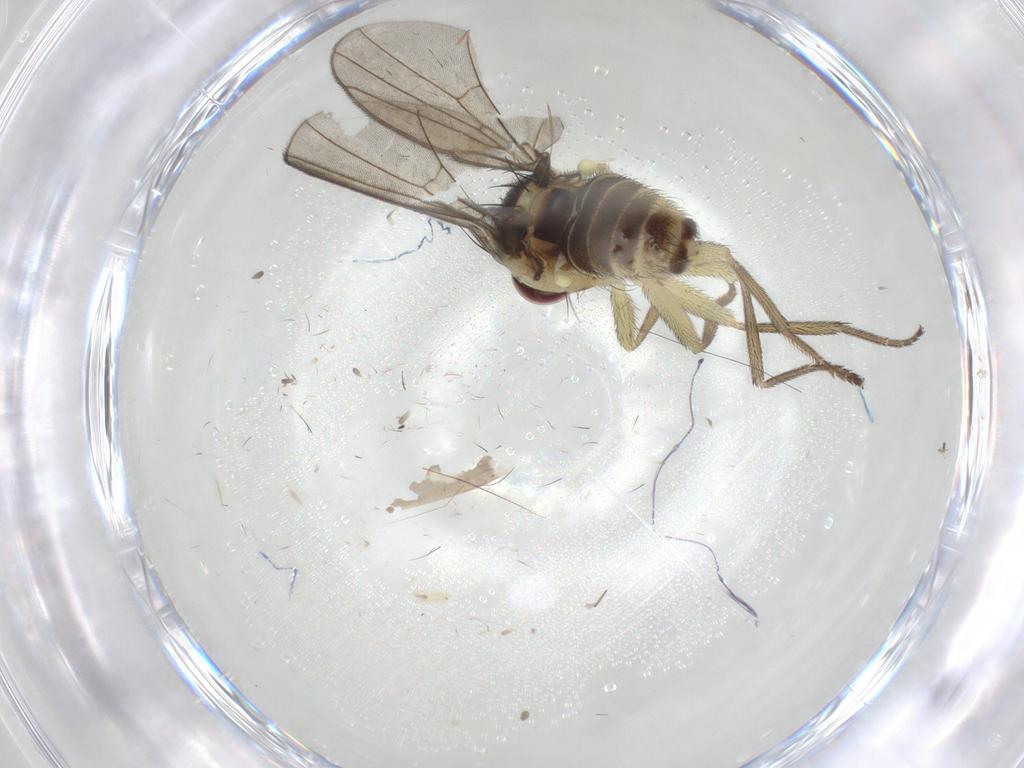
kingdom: Animalia
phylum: Arthropoda
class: Insecta
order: Diptera
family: Agromyzidae
